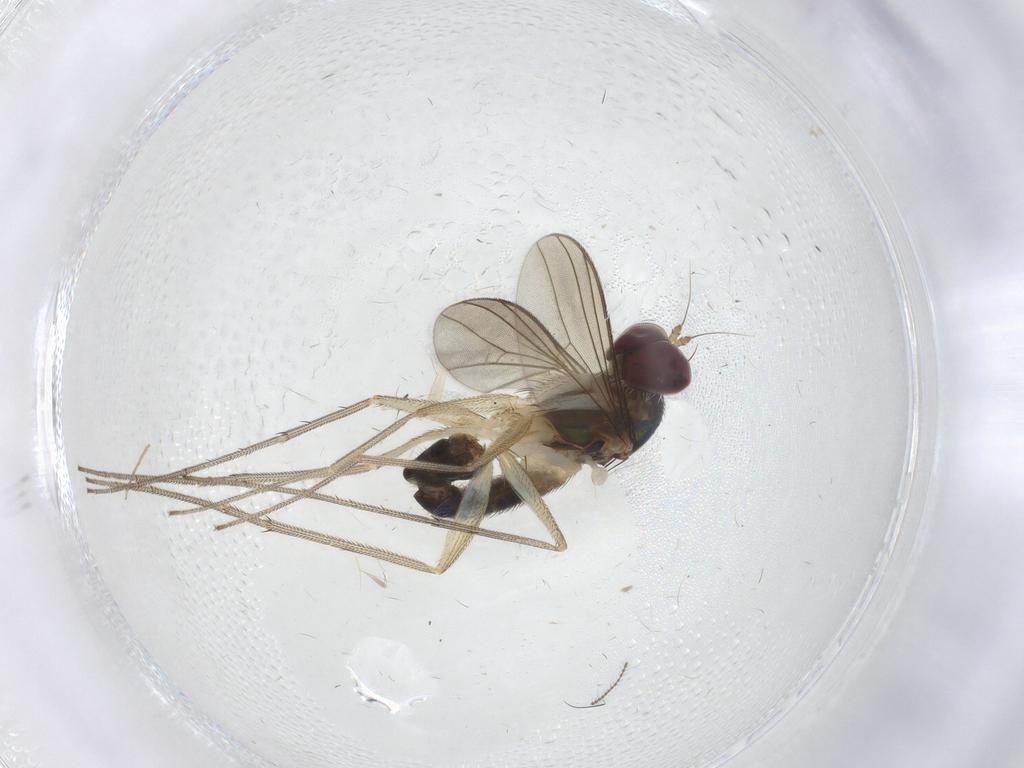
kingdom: Animalia
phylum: Arthropoda
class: Insecta
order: Diptera
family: Ceratopogonidae
